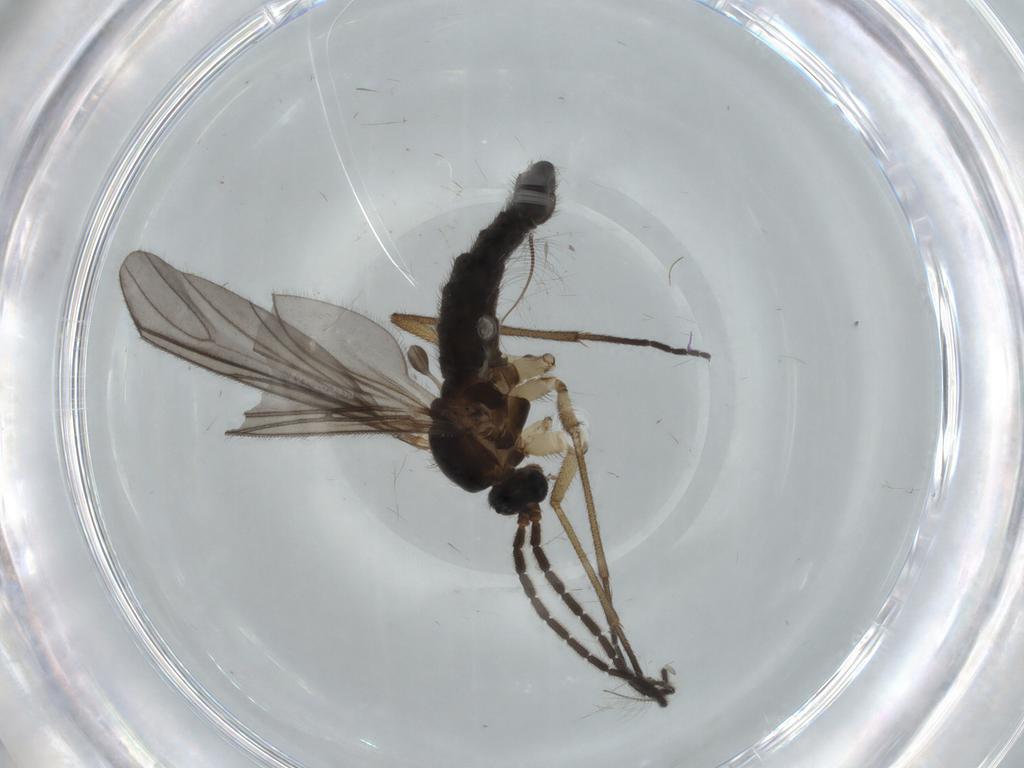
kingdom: Animalia
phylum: Arthropoda
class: Insecta
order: Diptera
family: Sciaridae
